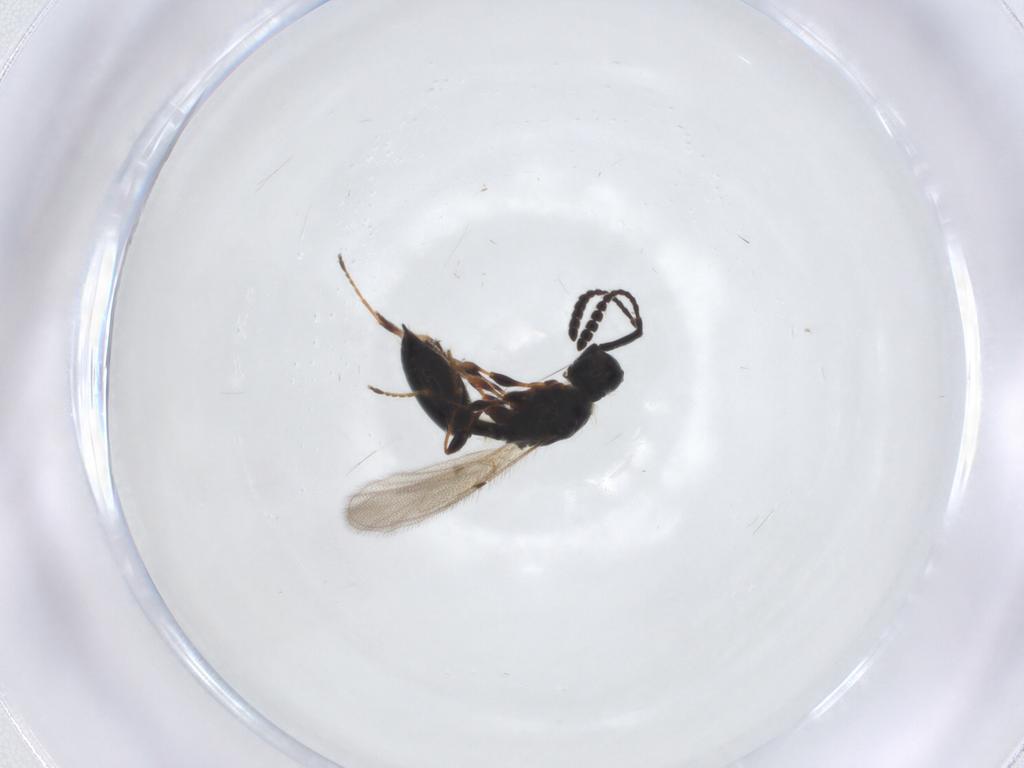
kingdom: Animalia
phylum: Arthropoda
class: Insecta
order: Hymenoptera
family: Diapriidae
